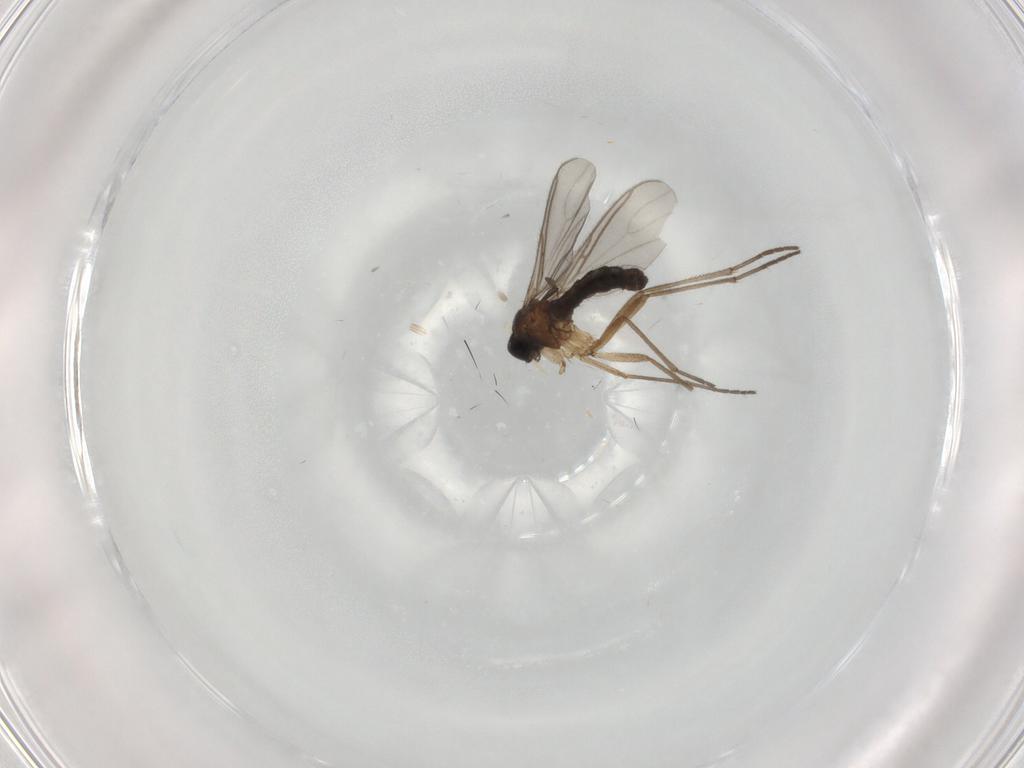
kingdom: Animalia
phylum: Arthropoda
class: Insecta
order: Diptera
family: Sciaridae
